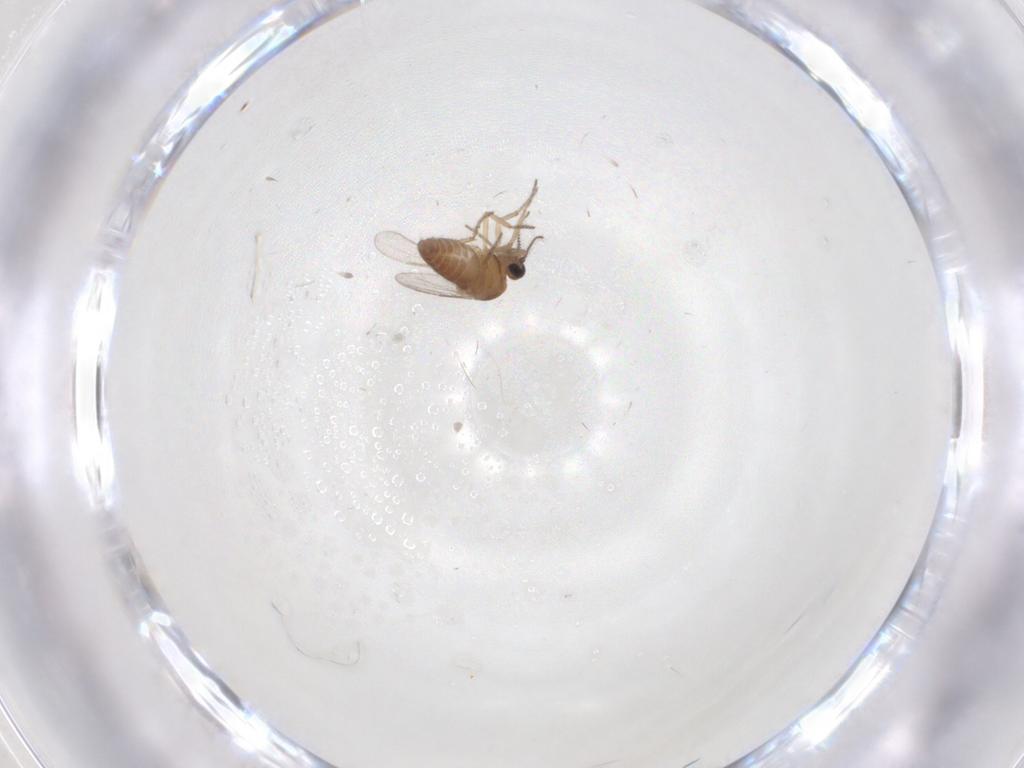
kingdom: Animalia
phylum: Arthropoda
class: Insecta
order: Diptera
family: Ceratopogonidae
